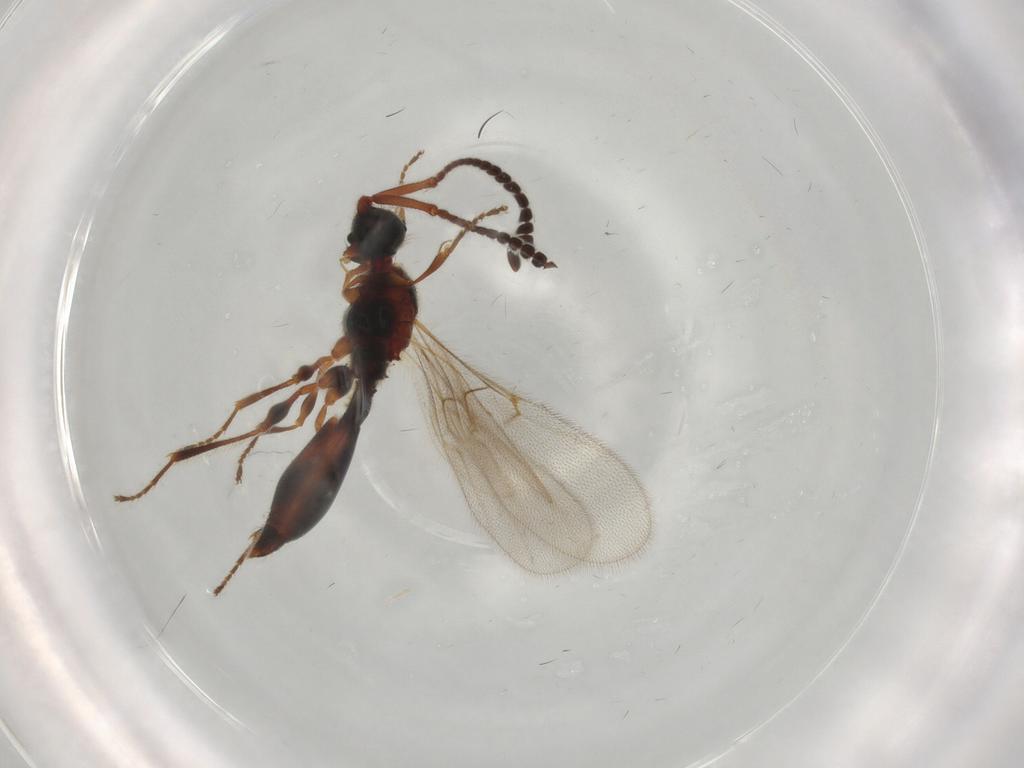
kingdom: Animalia
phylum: Arthropoda
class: Insecta
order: Hymenoptera
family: Diapriidae
